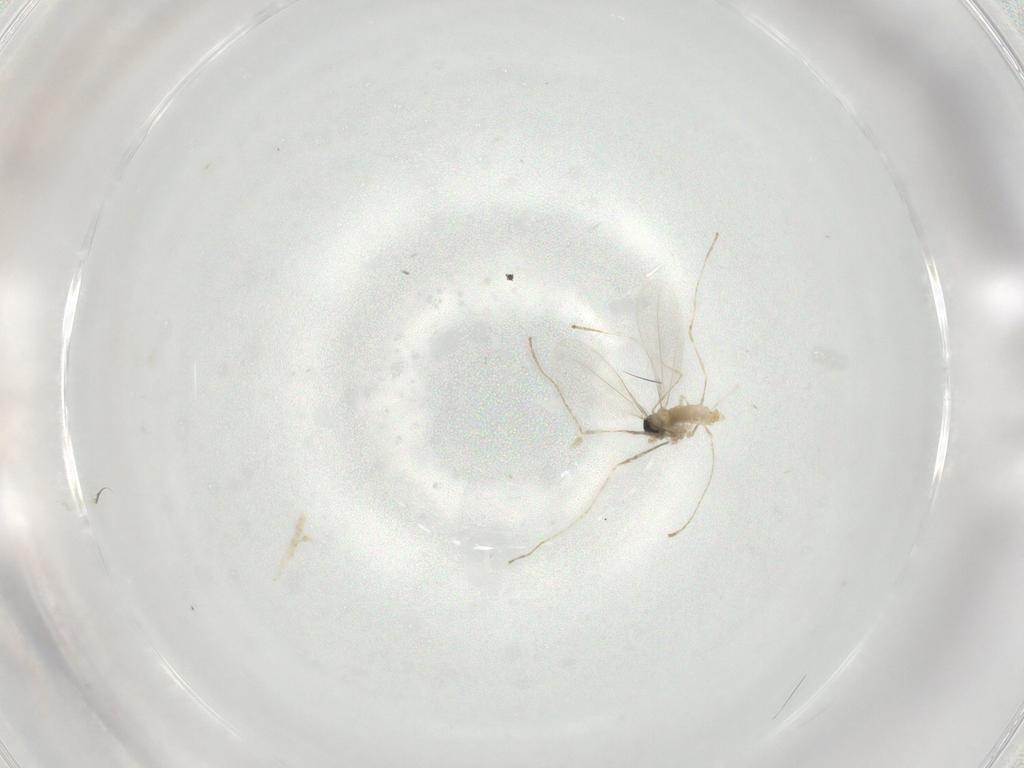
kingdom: Animalia
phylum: Arthropoda
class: Insecta
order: Diptera
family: Cecidomyiidae
